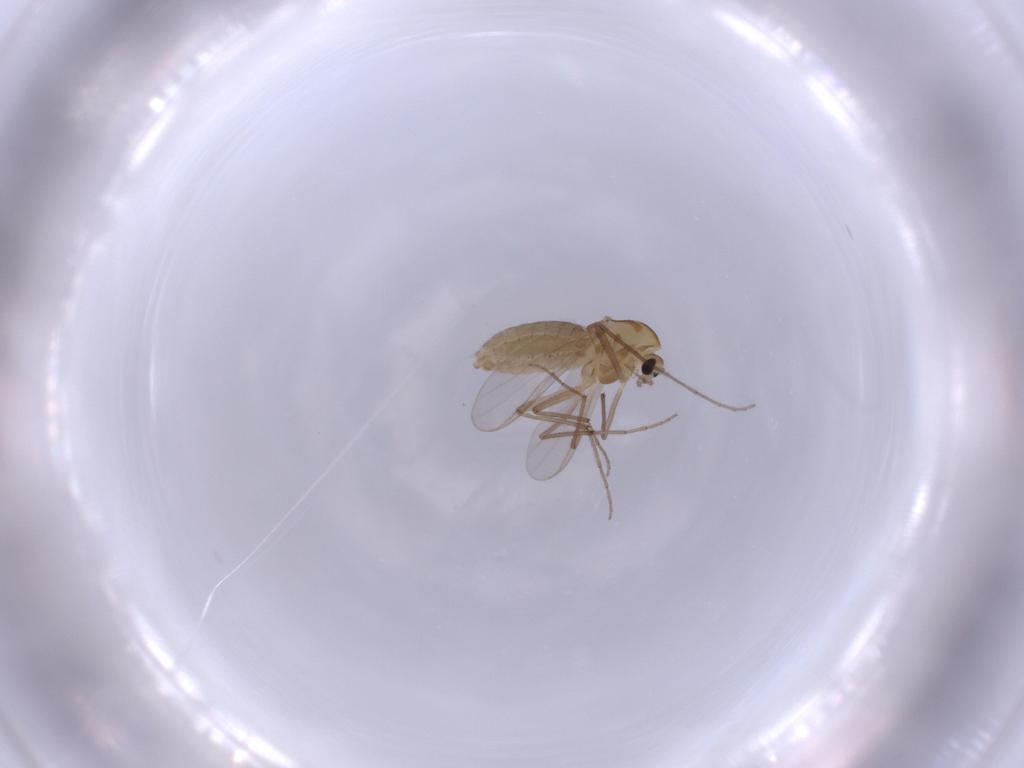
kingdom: Animalia
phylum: Arthropoda
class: Insecta
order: Diptera
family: Chironomidae
